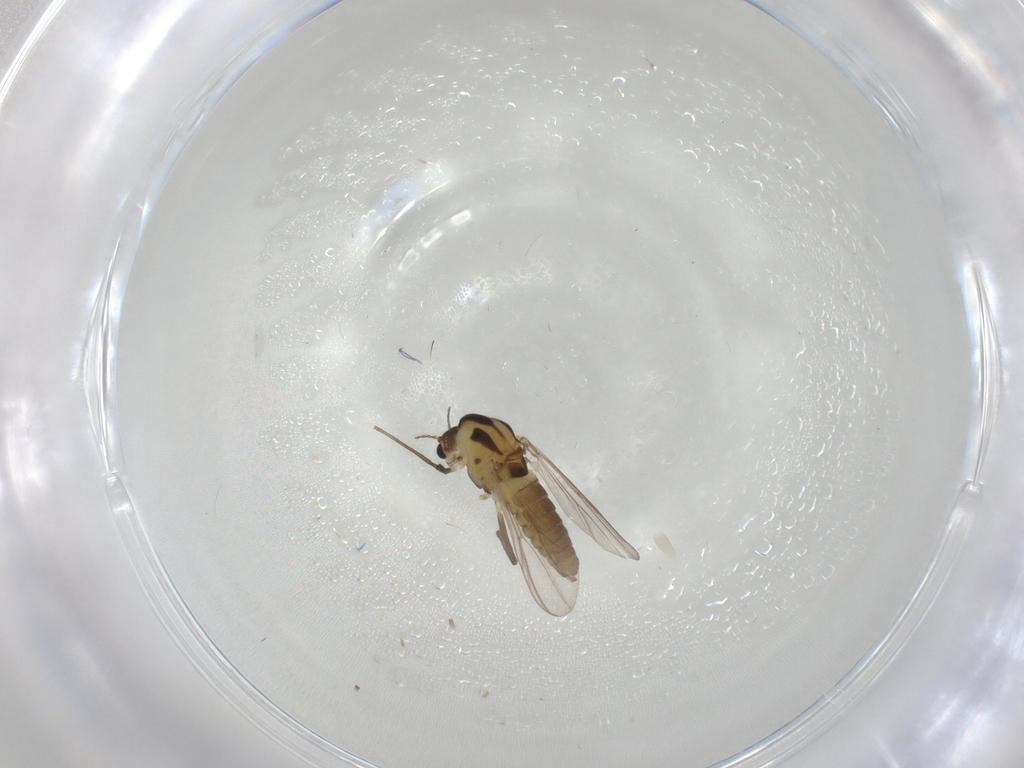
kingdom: Animalia
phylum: Arthropoda
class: Insecta
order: Diptera
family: Chironomidae
